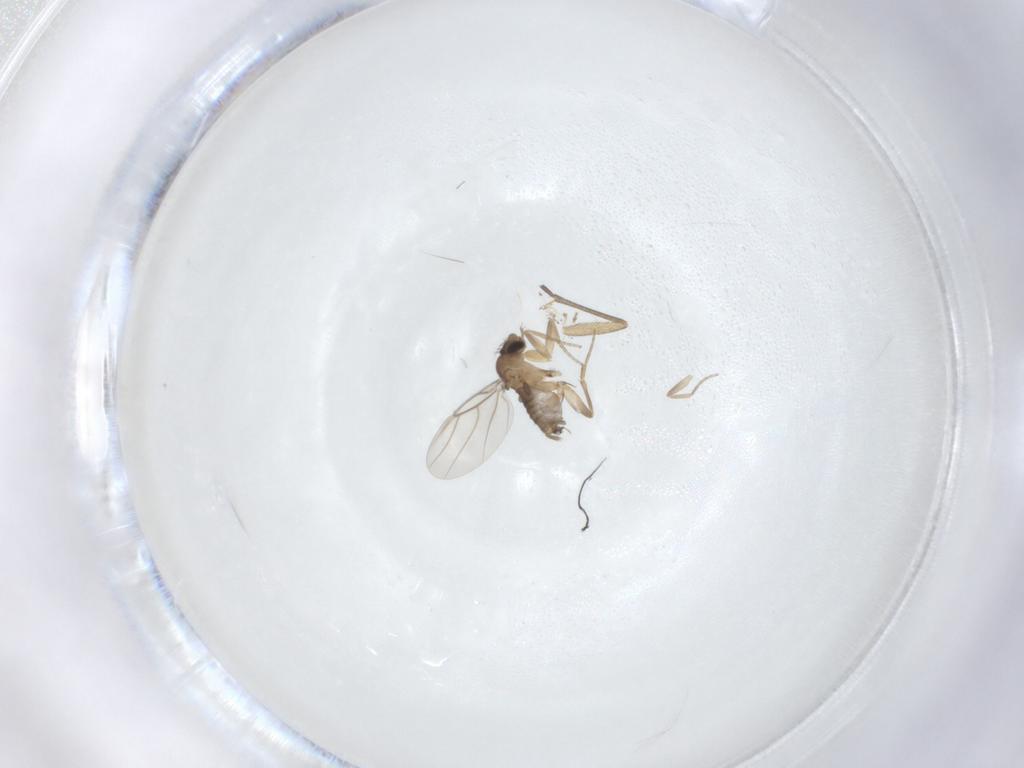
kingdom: Animalia
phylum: Arthropoda
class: Insecta
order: Diptera
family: Phoridae
